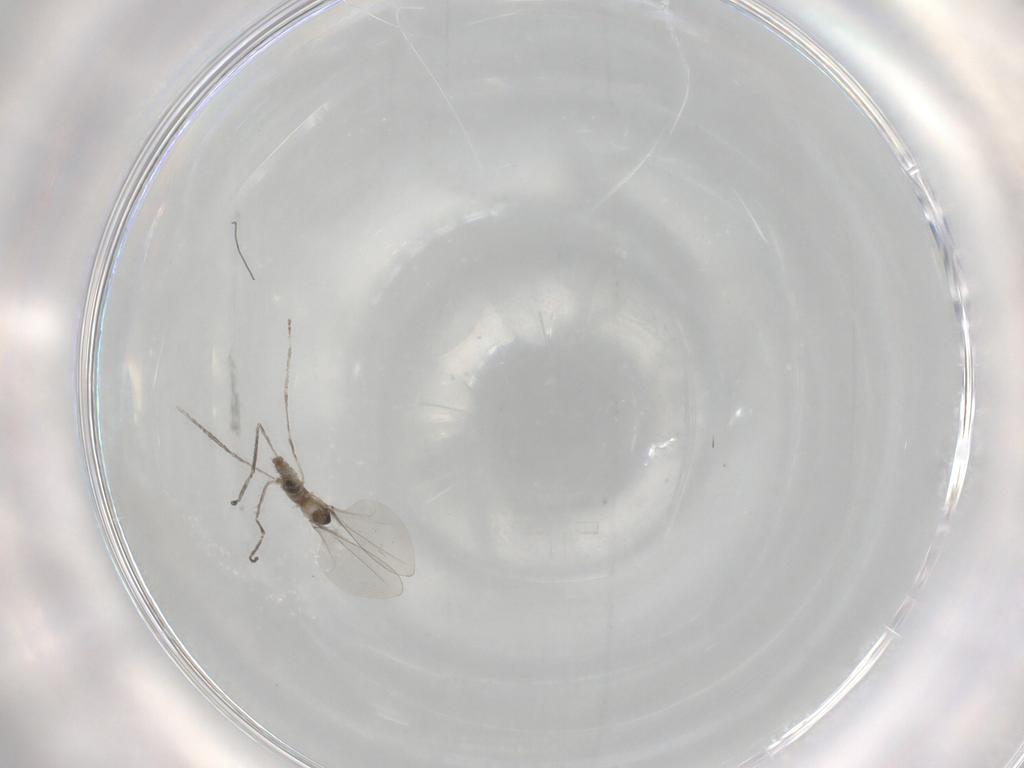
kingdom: Animalia
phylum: Arthropoda
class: Insecta
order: Diptera
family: Cecidomyiidae
